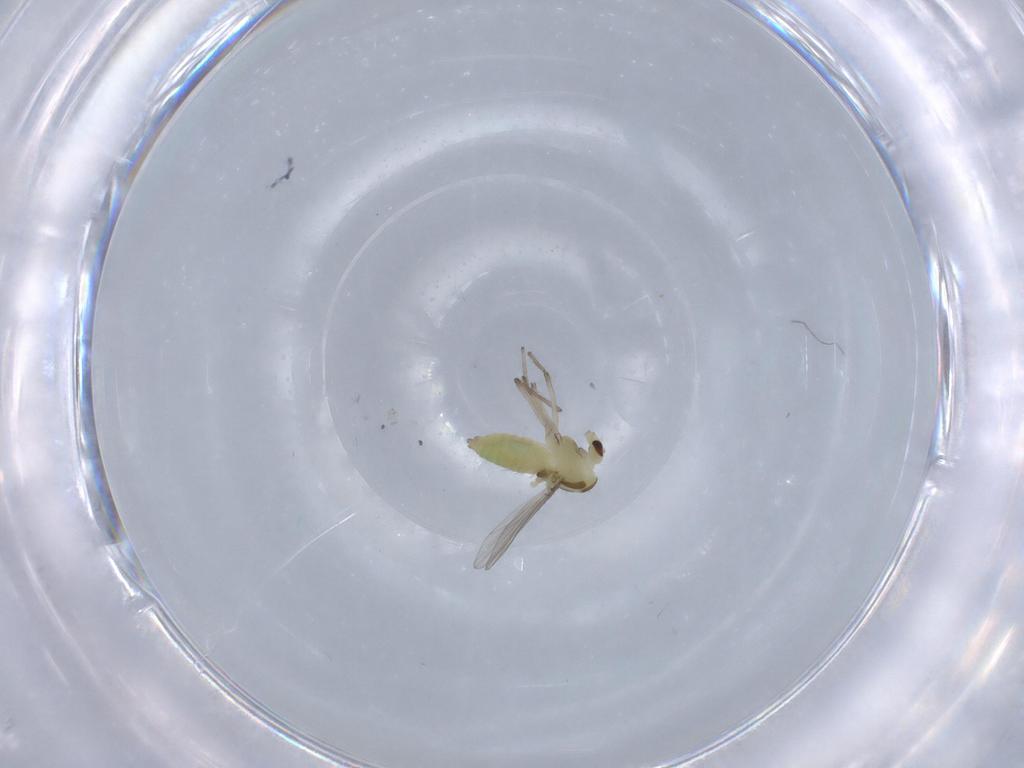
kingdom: Animalia
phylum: Arthropoda
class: Insecta
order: Diptera
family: Chironomidae
